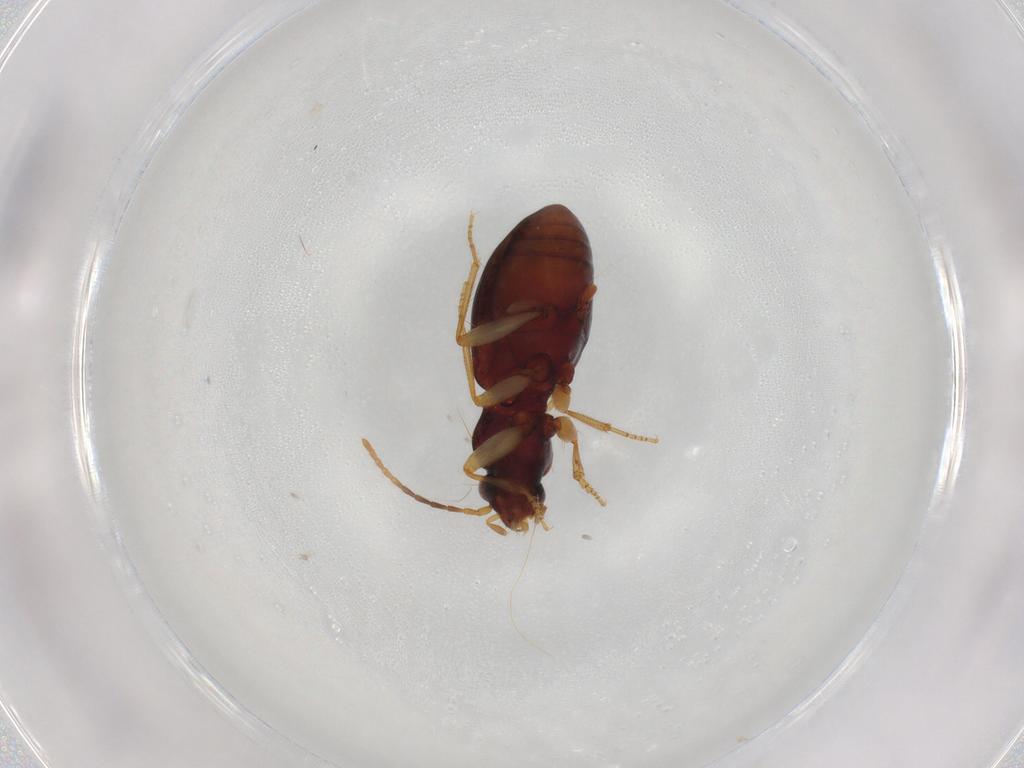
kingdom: Animalia
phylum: Arthropoda
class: Insecta
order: Coleoptera
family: Carabidae
